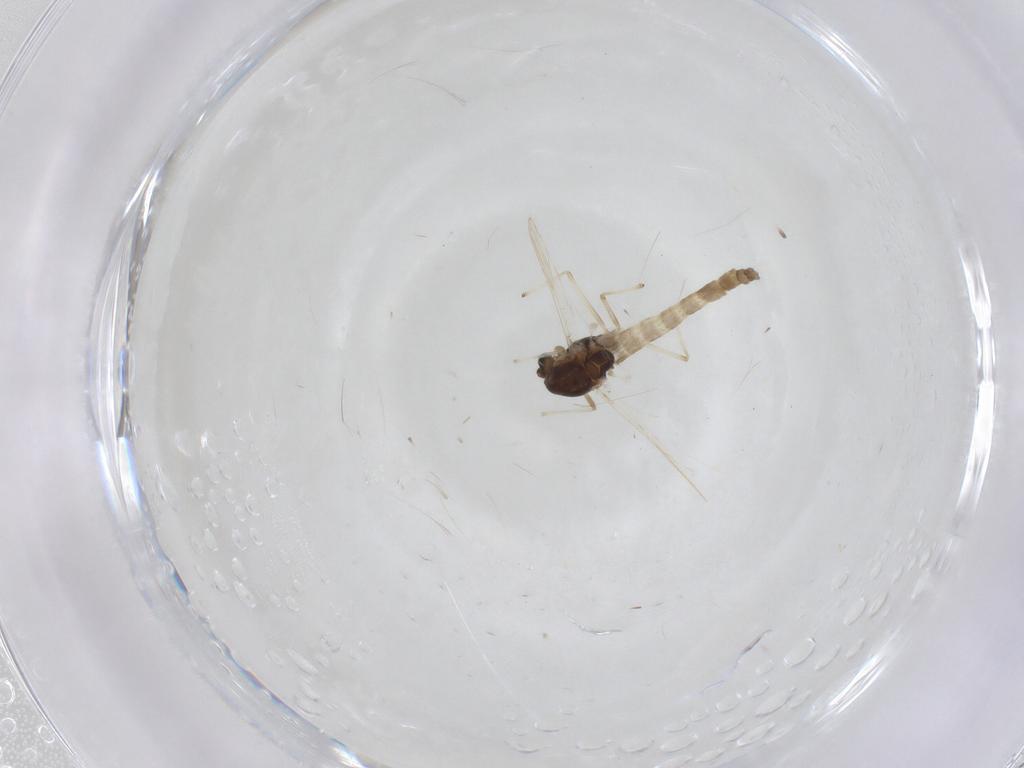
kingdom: Animalia
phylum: Arthropoda
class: Insecta
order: Diptera
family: Chironomidae
